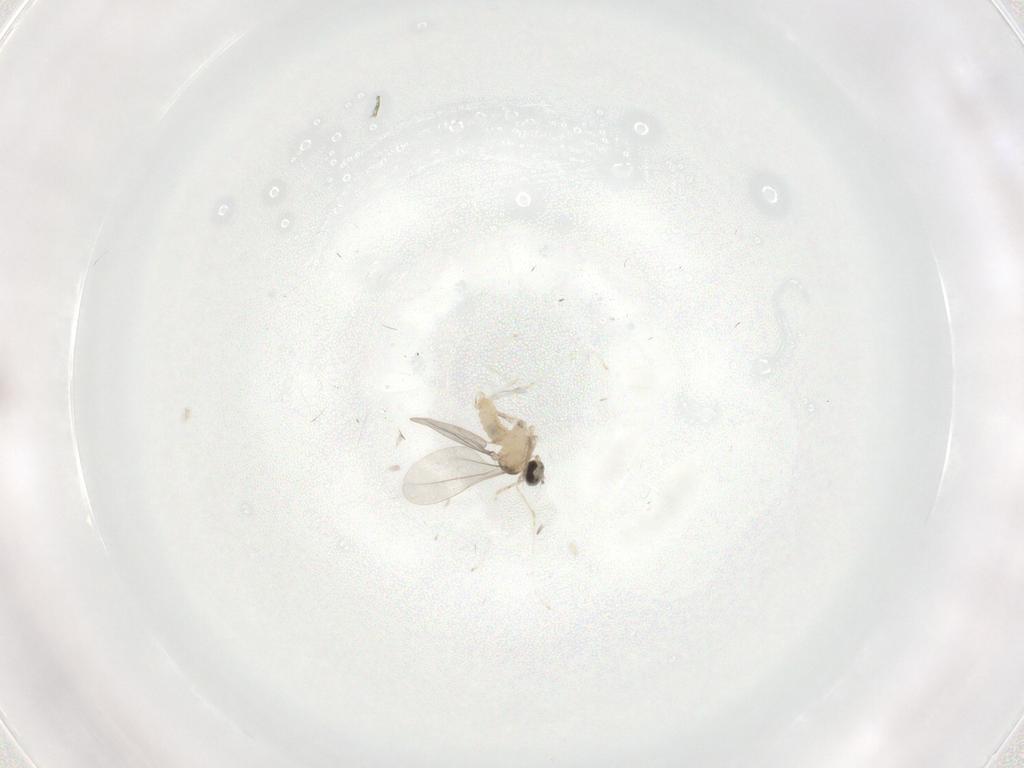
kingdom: Animalia
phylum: Arthropoda
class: Insecta
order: Diptera
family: Cecidomyiidae
